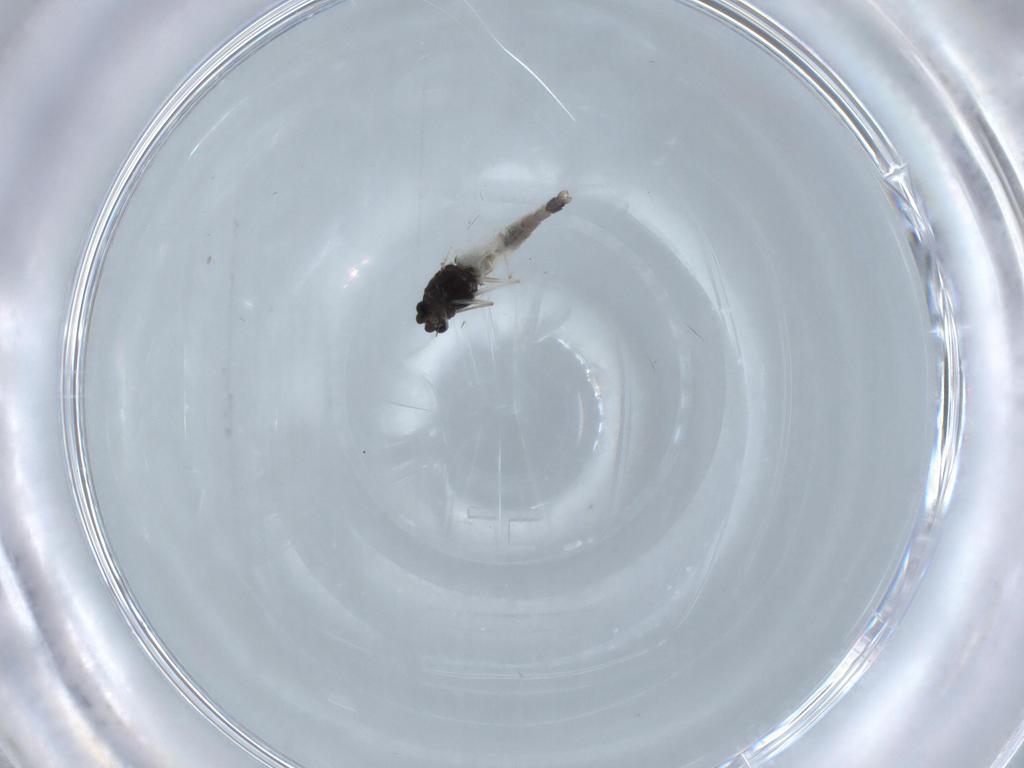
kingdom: Animalia
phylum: Arthropoda
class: Insecta
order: Diptera
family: Chironomidae
